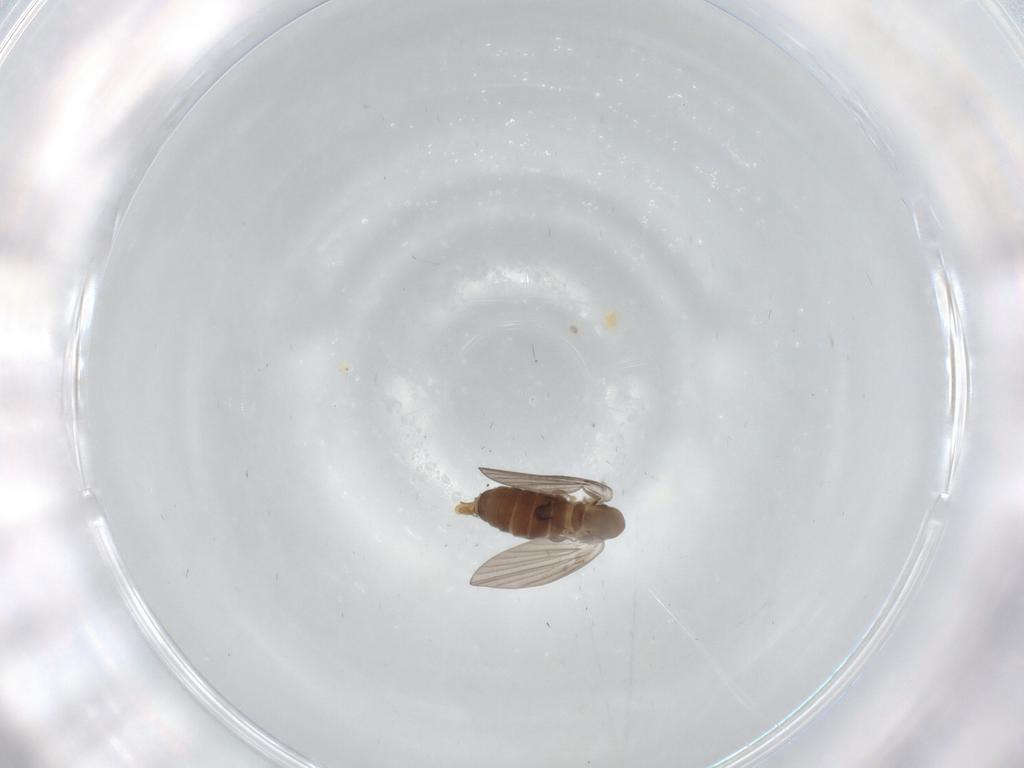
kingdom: Animalia
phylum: Arthropoda
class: Insecta
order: Diptera
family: Phoridae
